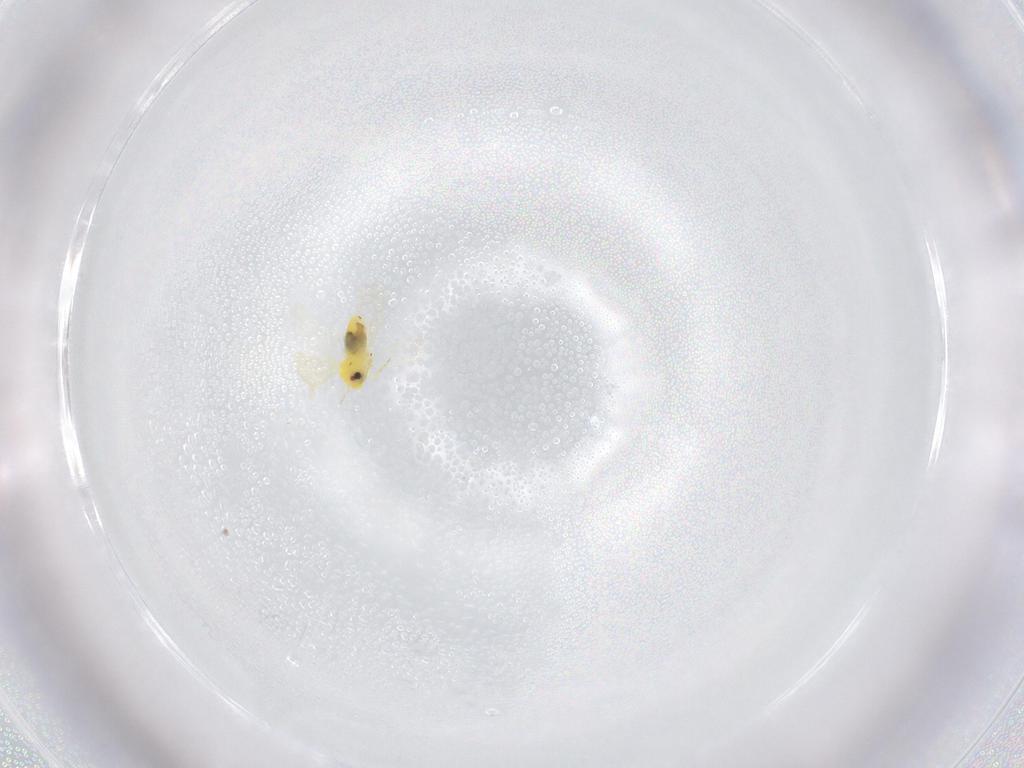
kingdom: Animalia
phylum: Arthropoda
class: Insecta
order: Hemiptera
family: Aleyrodidae
